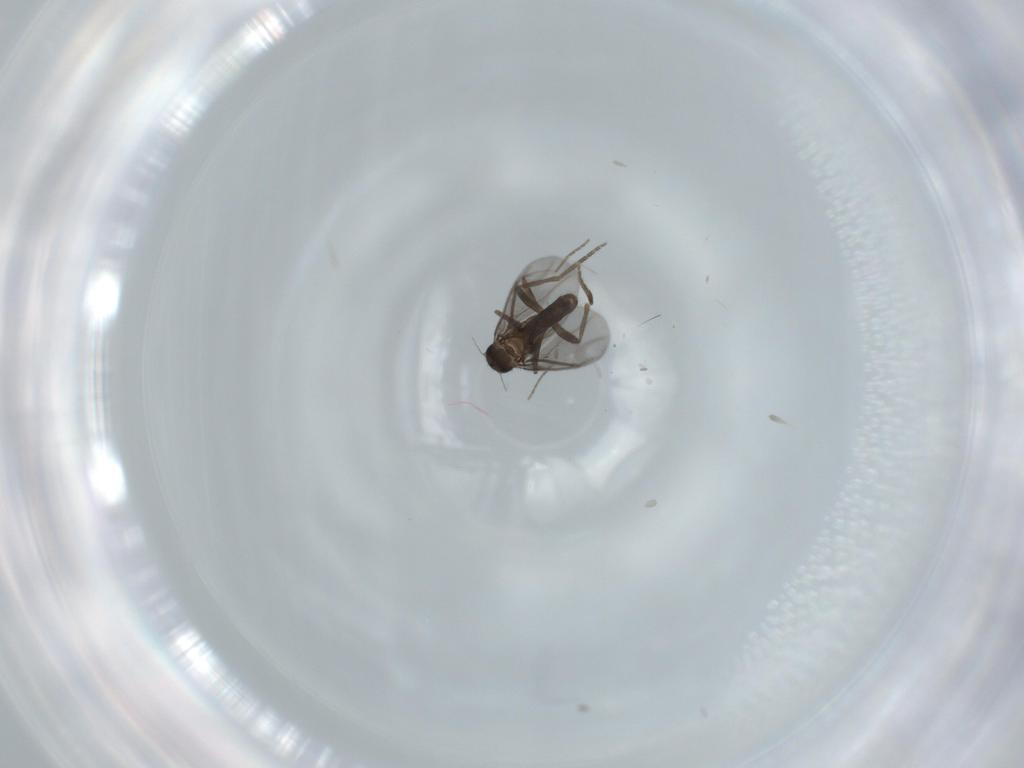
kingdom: Animalia
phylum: Arthropoda
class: Insecta
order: Diptera
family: Phoridae
